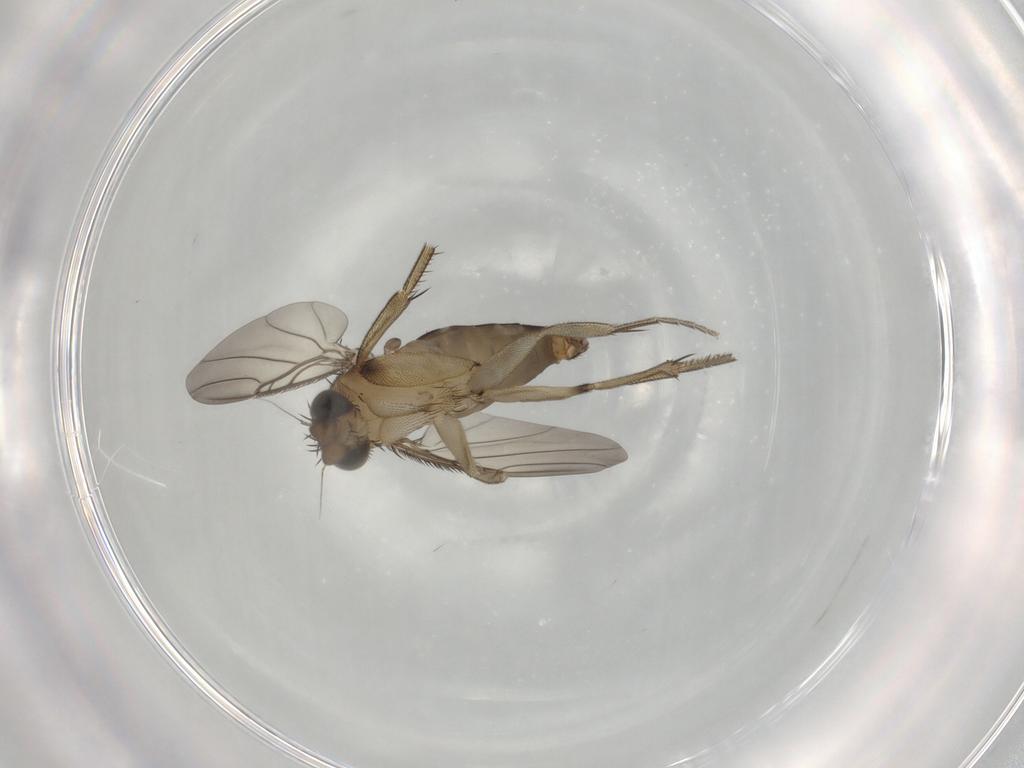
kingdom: Animalia
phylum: Arthropoda
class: Insecta
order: Diptera
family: Phoridae
